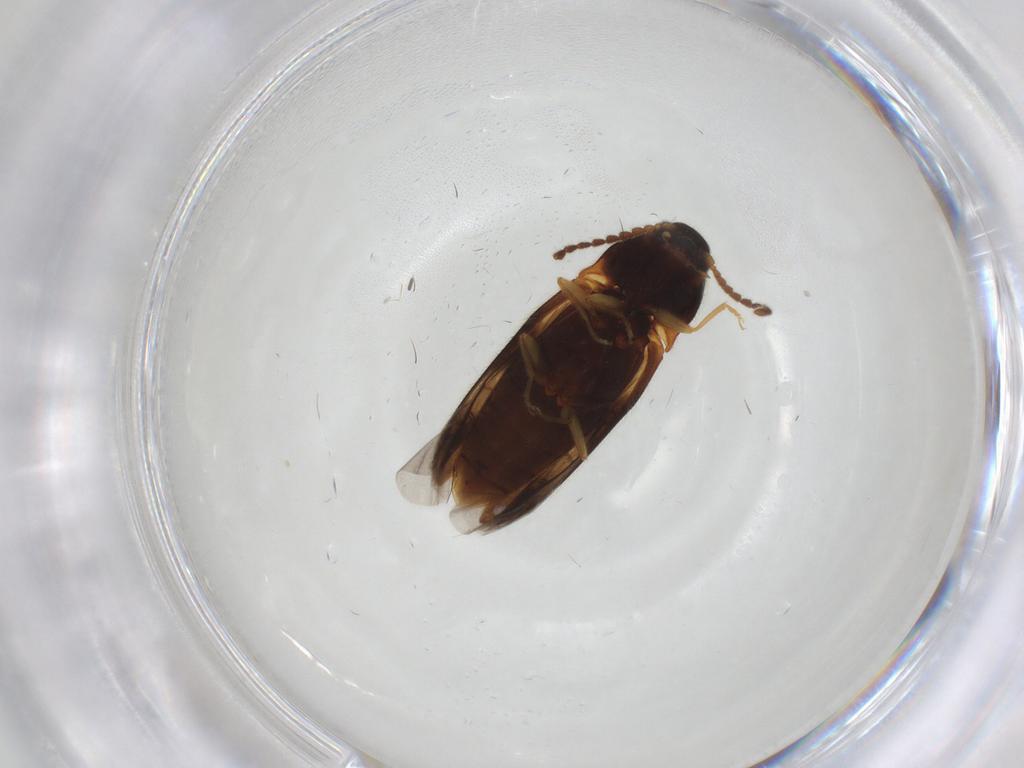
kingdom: Animalia
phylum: Arthropoda
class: Insecta
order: Coleoptera
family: Elateridae
